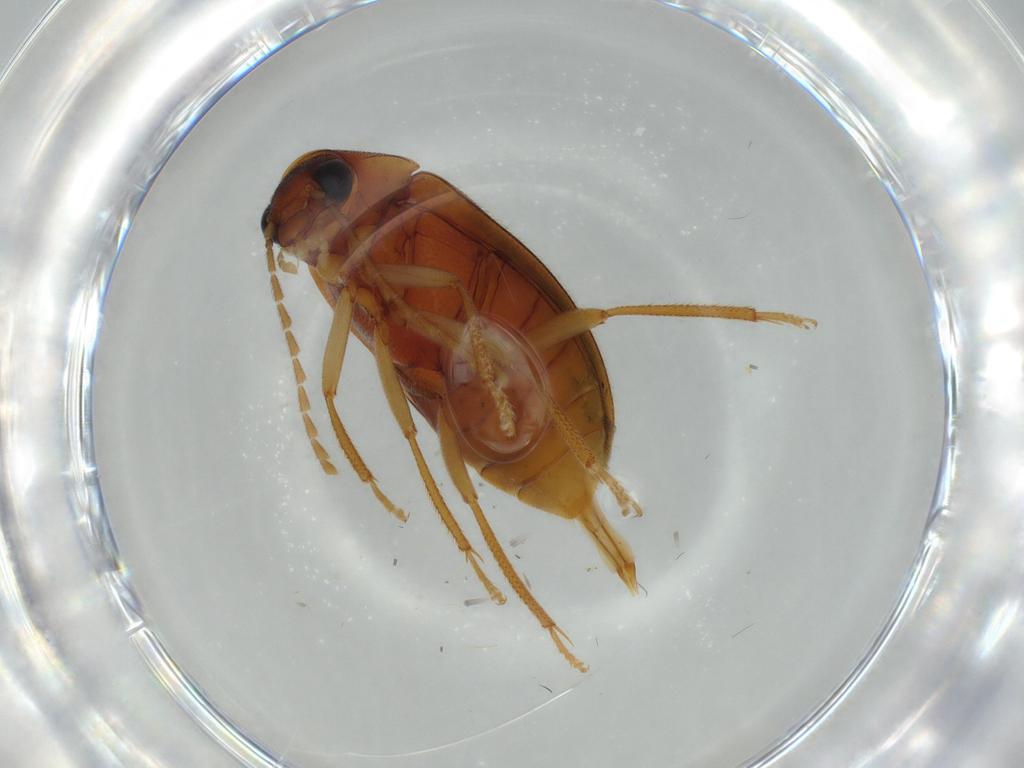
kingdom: Animalia
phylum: Arthropoda
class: Insecta
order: Coleoptera
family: Ptilodactylidae
